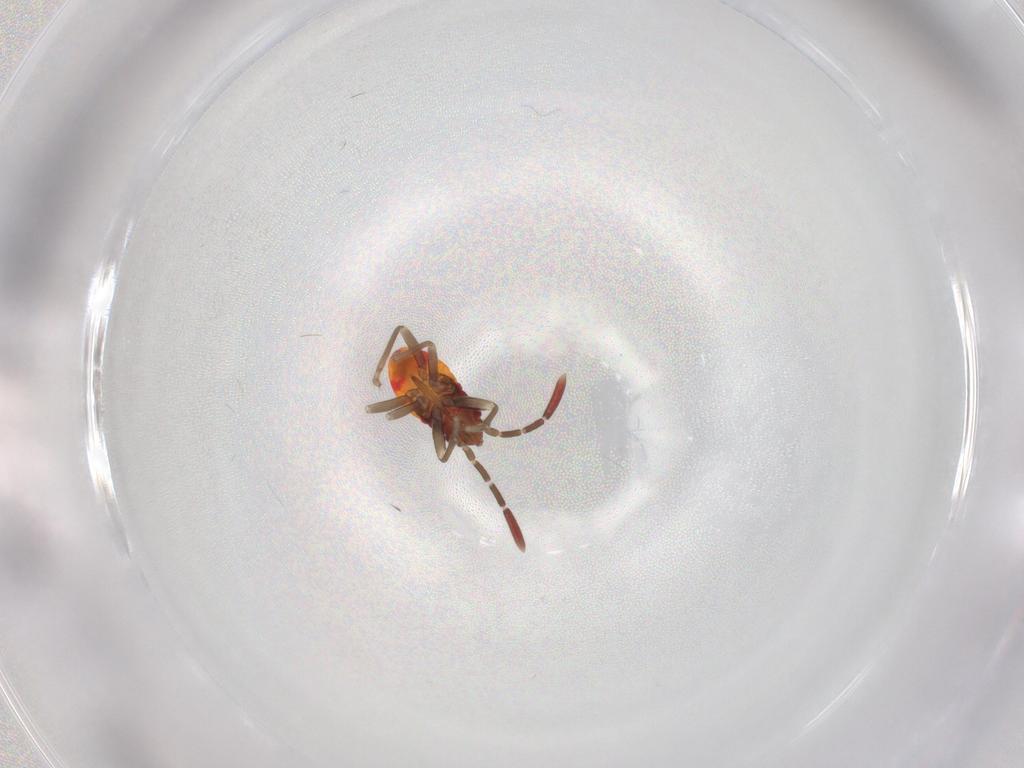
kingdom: Animalia
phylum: Arthropoda
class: Insecta
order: Hemiptera
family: Rhyparochromidae
